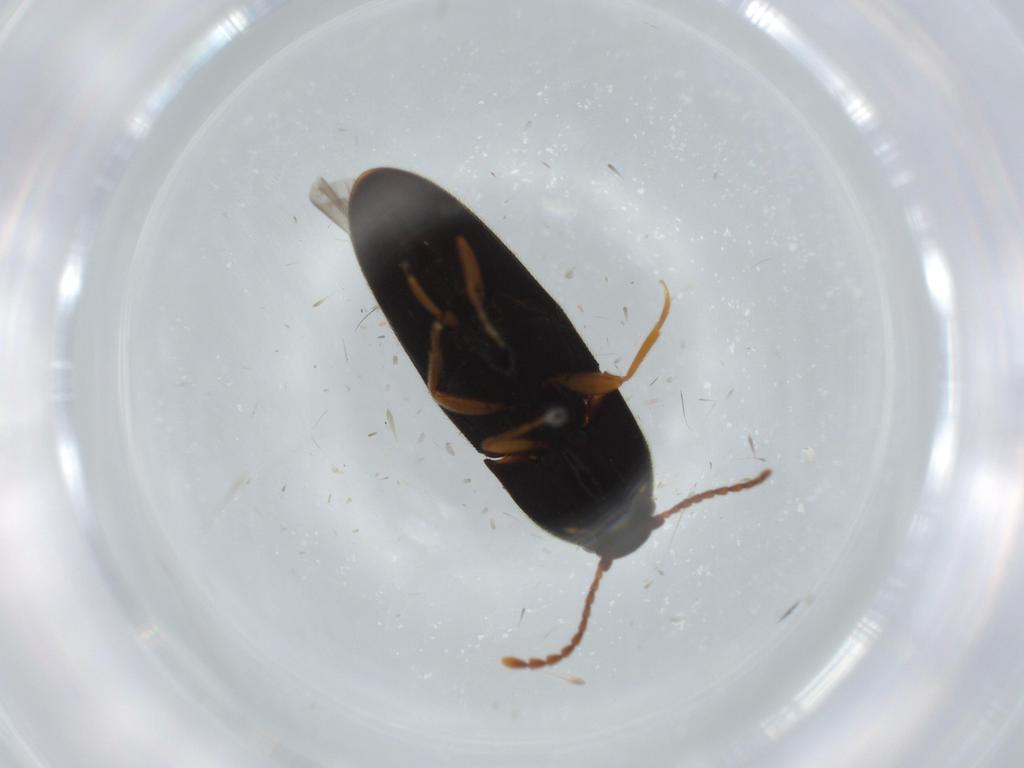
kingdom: Animalia
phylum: Arthropoda
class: Insecta
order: Coleoptera
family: Elateridae
